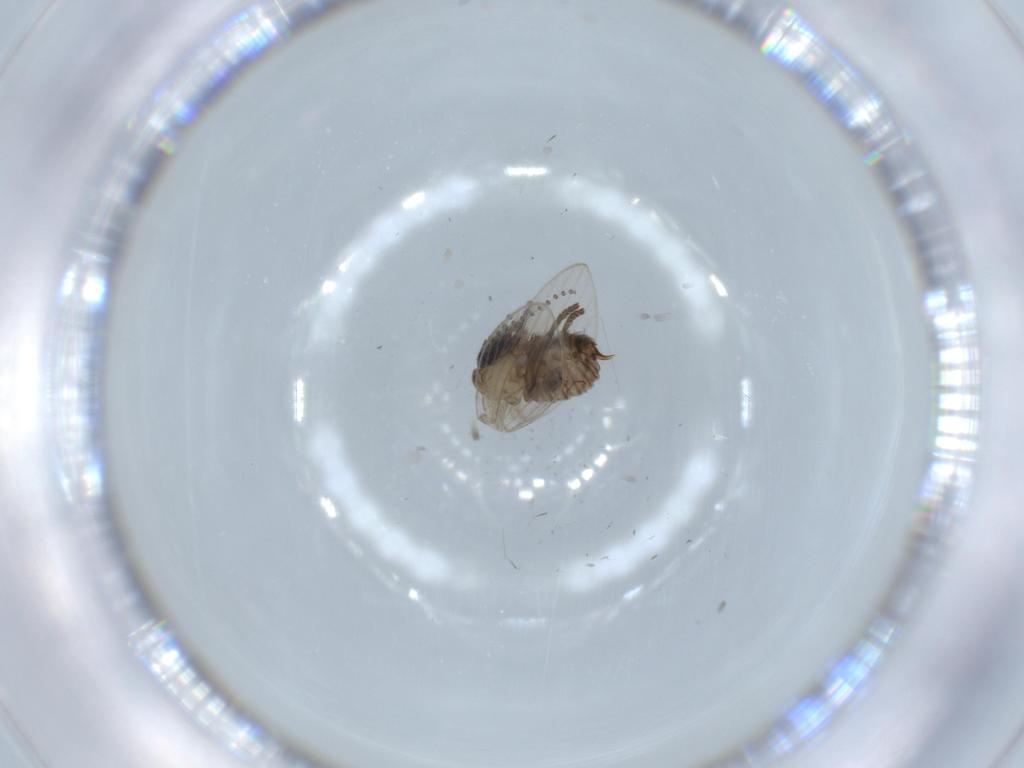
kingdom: Animalia
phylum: Arthropoda
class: Insecta
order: Diptera
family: Psychodidae
